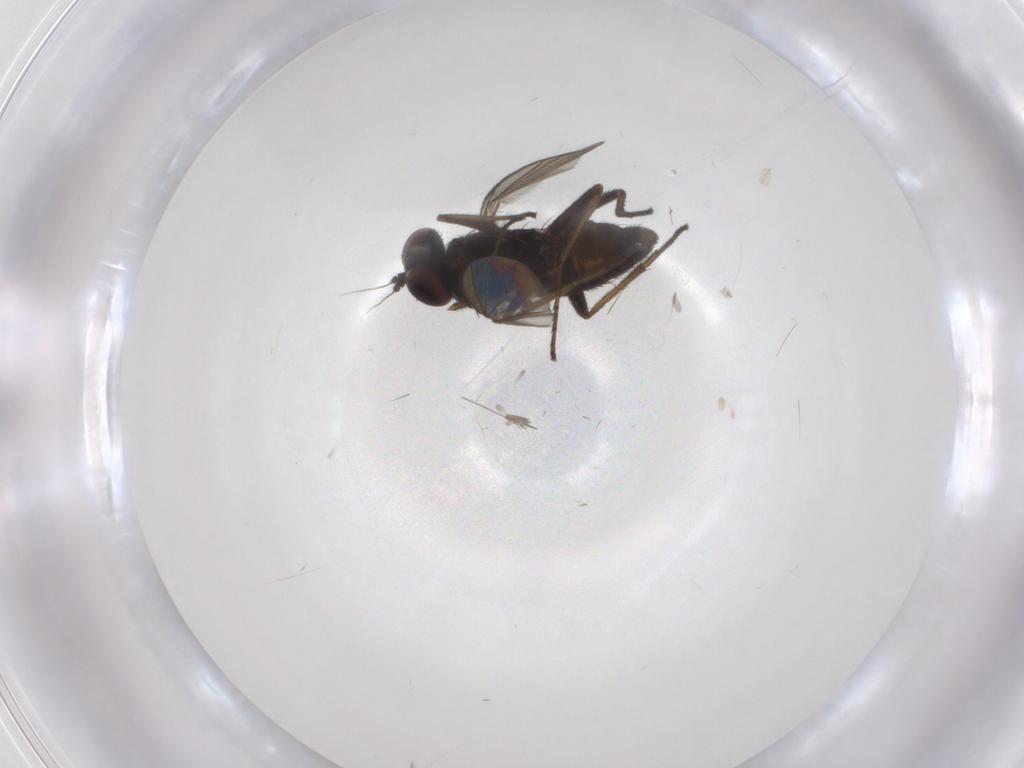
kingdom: Animalia
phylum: Arthropoda
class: Insecta
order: Diptera
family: Dolichopodidae
